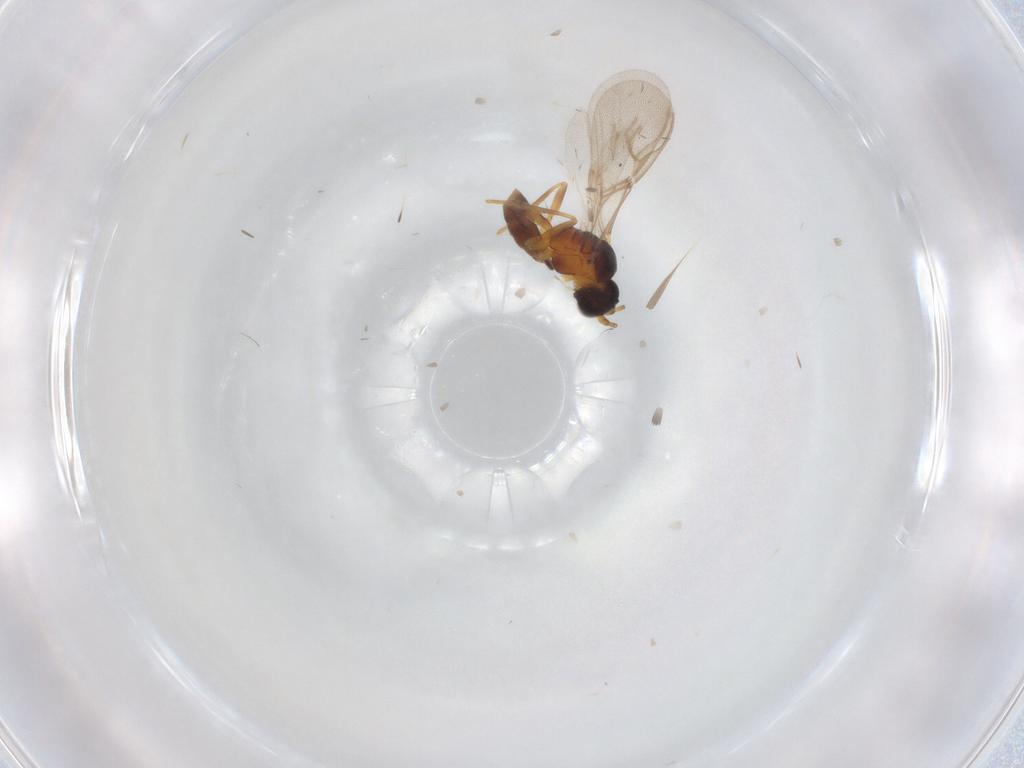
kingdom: Animalia
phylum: Arthropoda
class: Insecta
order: Hymenoptera
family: Braconidae
